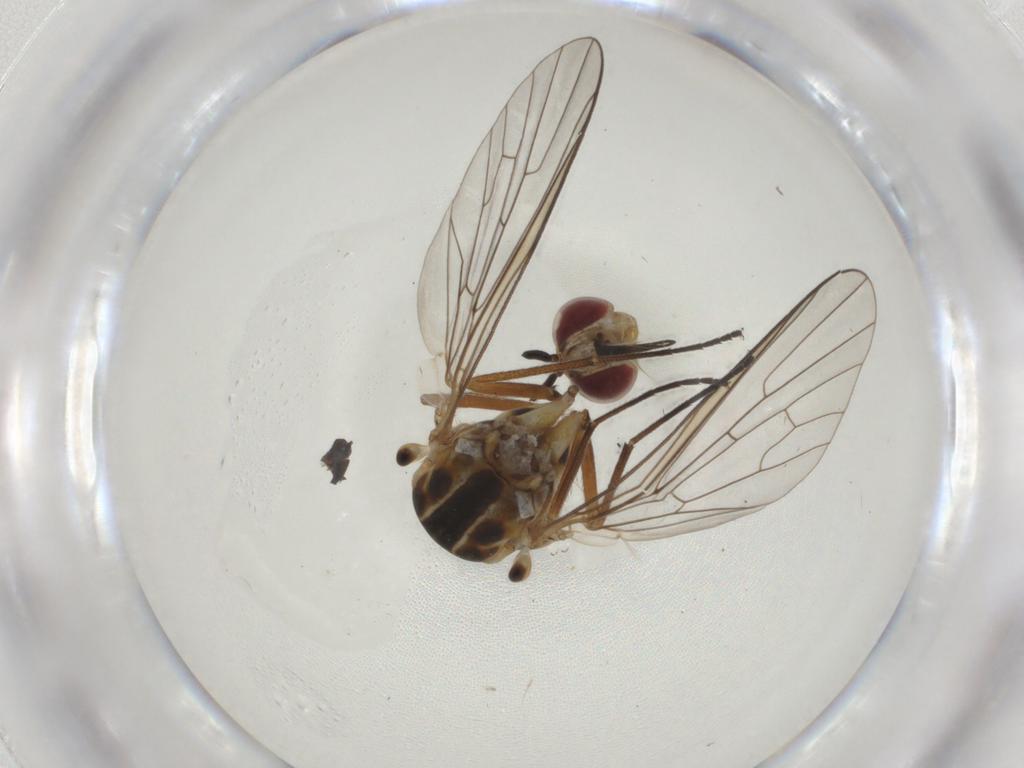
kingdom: Animalia
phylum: Arthropoda
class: Insecta
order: Diptera
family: Bombyliidae
